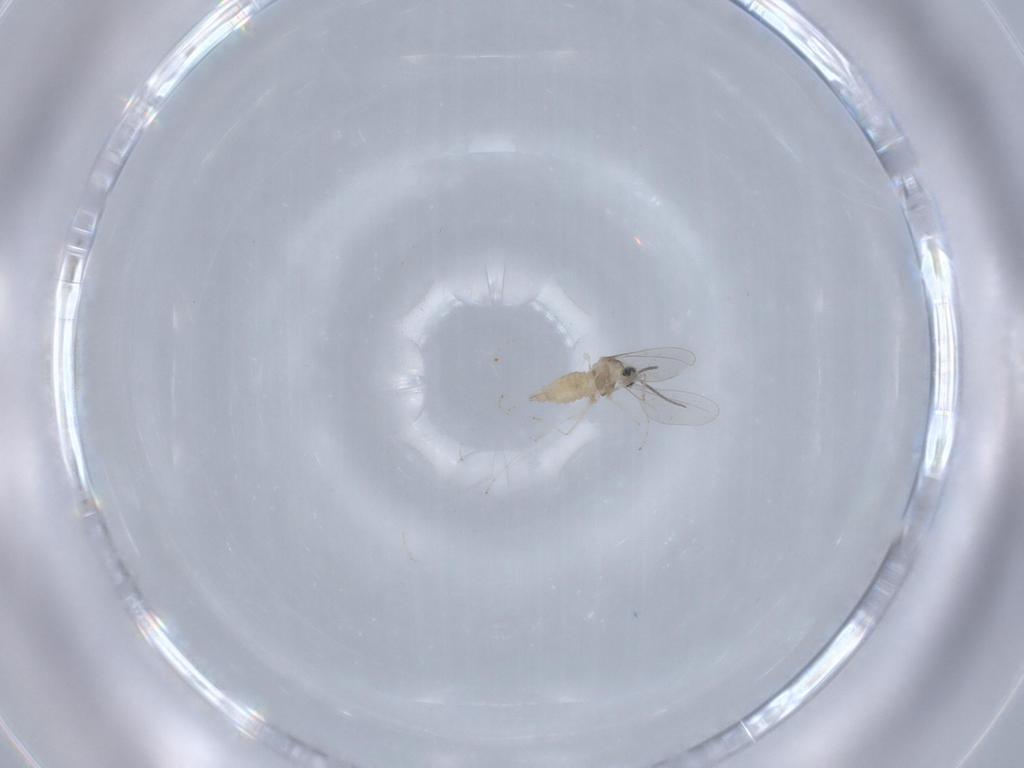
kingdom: Animalia
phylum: Arthropoda
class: Insecta
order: Diptera
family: Cecidomyiidae
